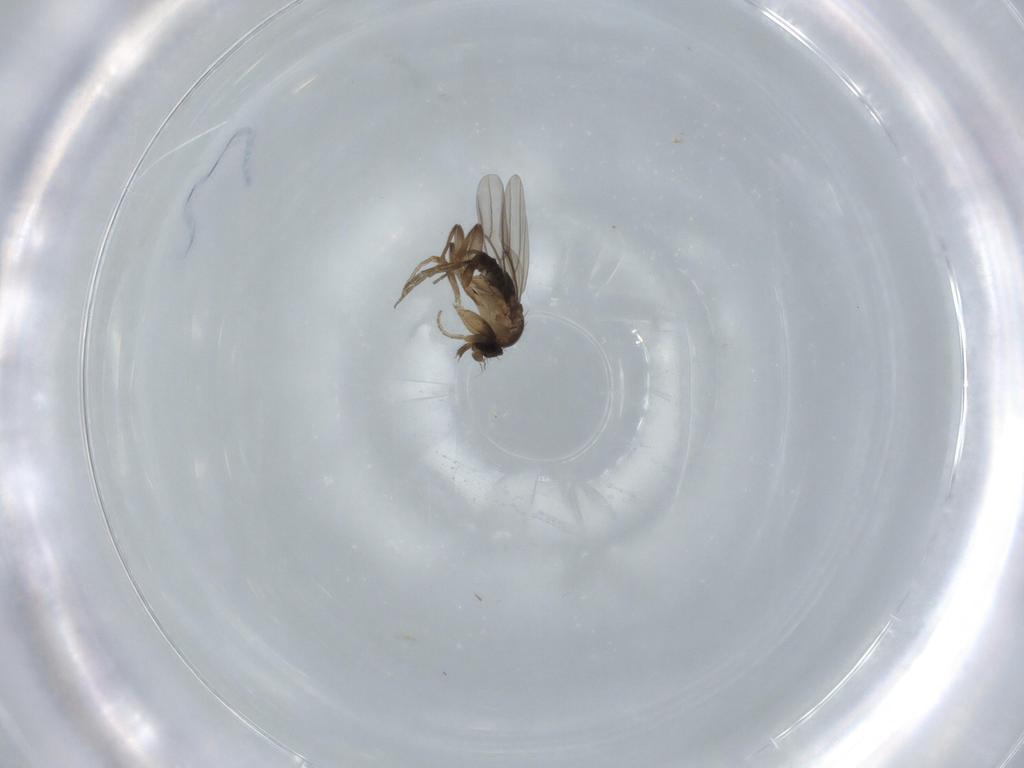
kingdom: Animalia
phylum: Arthropoda
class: Insecta
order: Diptera
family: Phoridae
